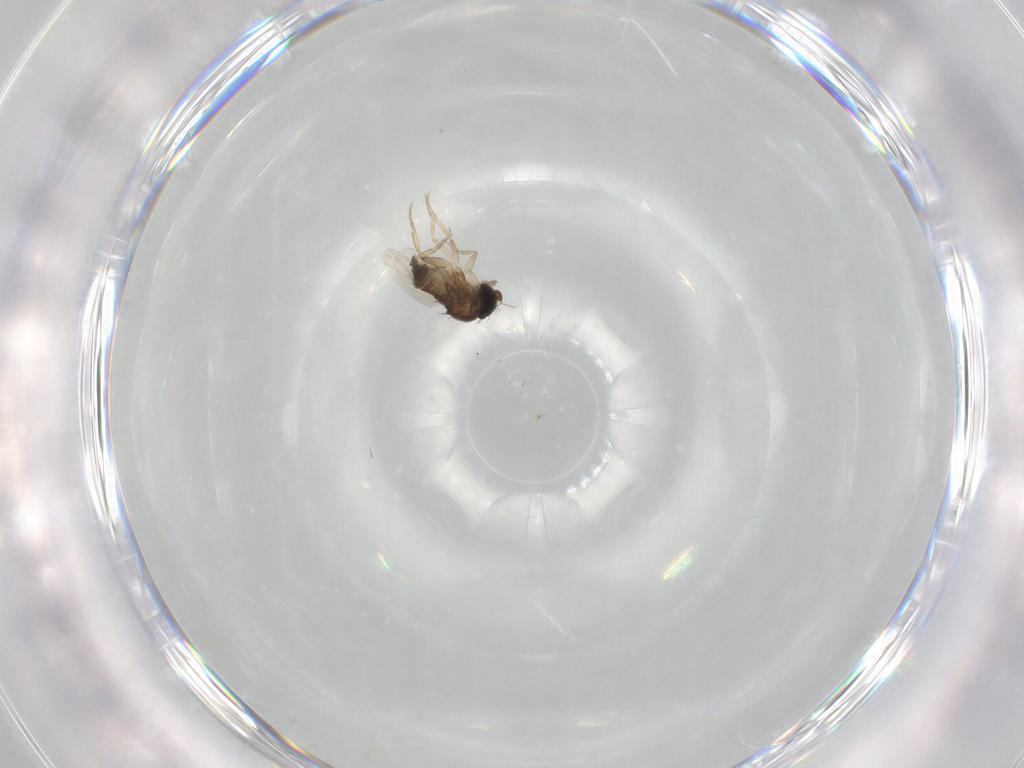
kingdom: Animalia
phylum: Arthropoda
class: Insecta
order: Diptera
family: Phoridae
